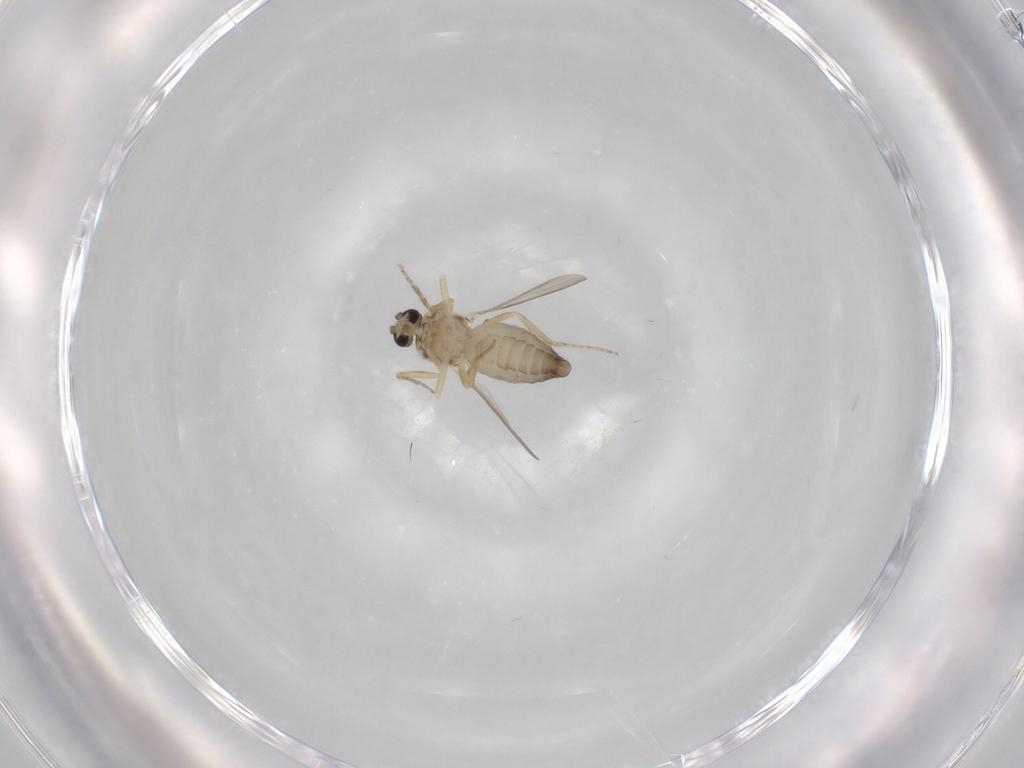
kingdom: Animalia
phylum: Arthropoda
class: Insecta
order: Diptera
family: Ceratopogonidae
